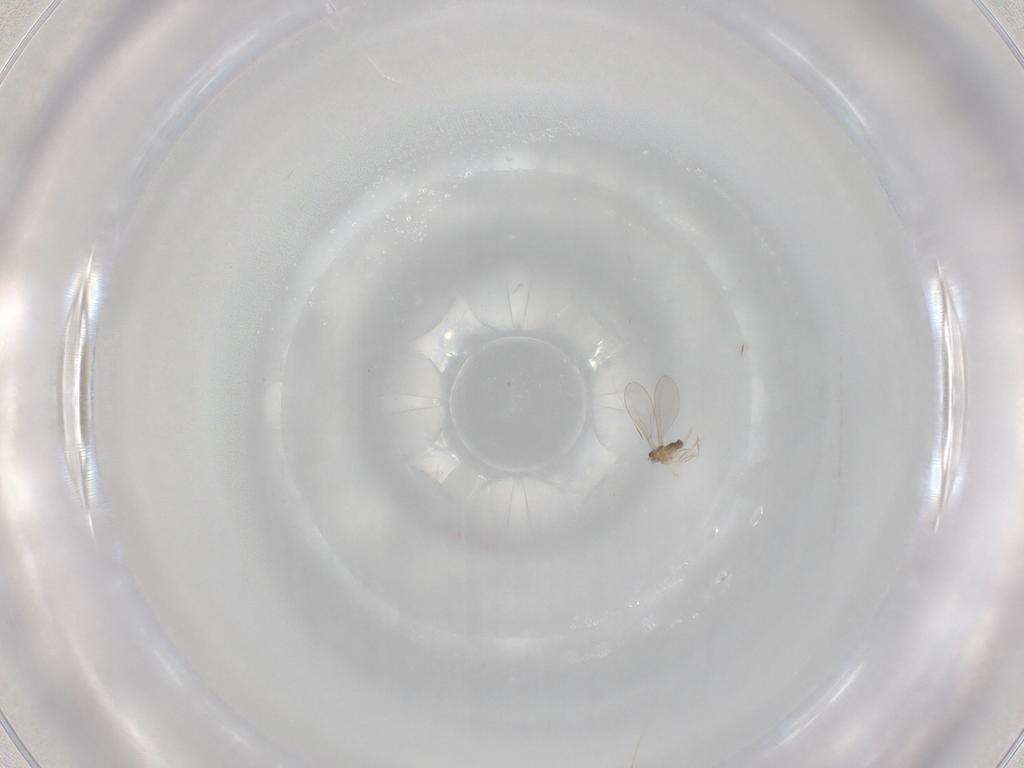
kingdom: Animalia
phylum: Arthropoda
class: Insecta
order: Diptera
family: Cecidomyiidae
